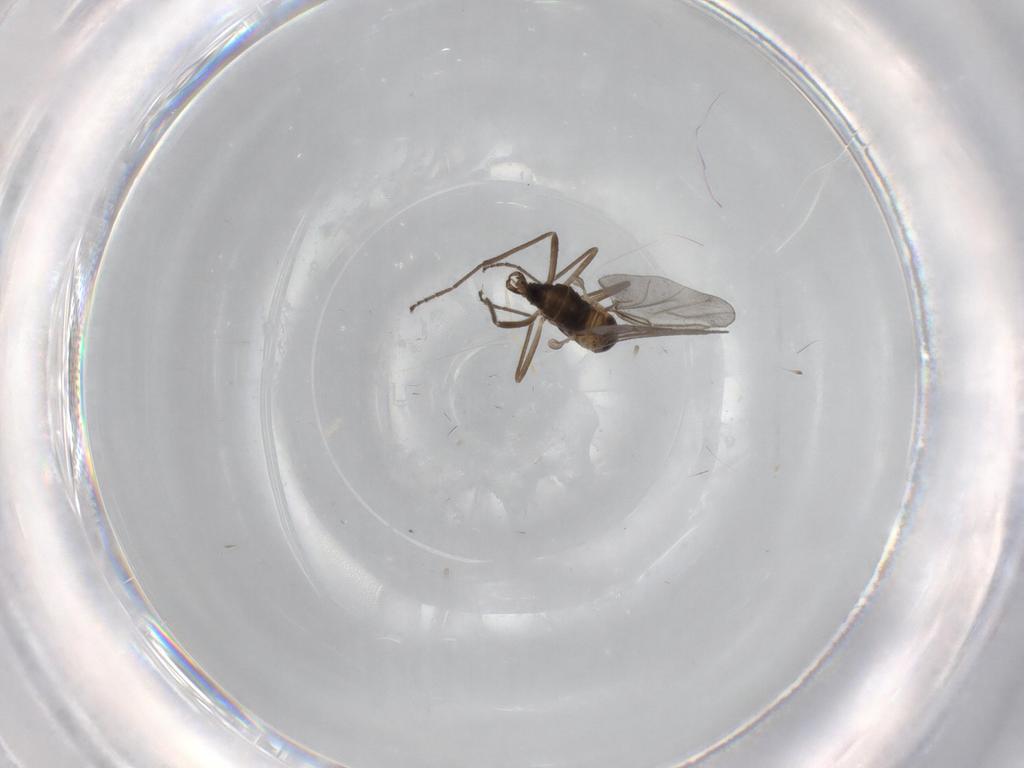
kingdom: Animalia
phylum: Arthropoda
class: Insecta
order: Diptera
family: Cecidomyiidae
